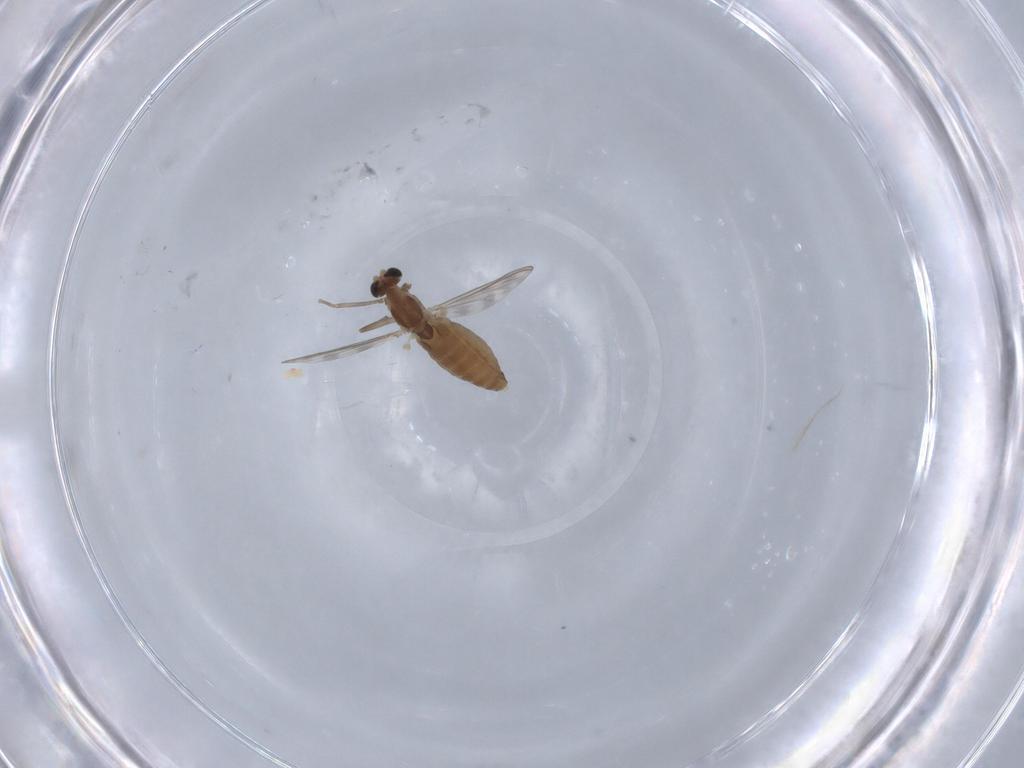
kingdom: Animalia
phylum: Arthropoda
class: Insecta
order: Diptera
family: Chironomidae
